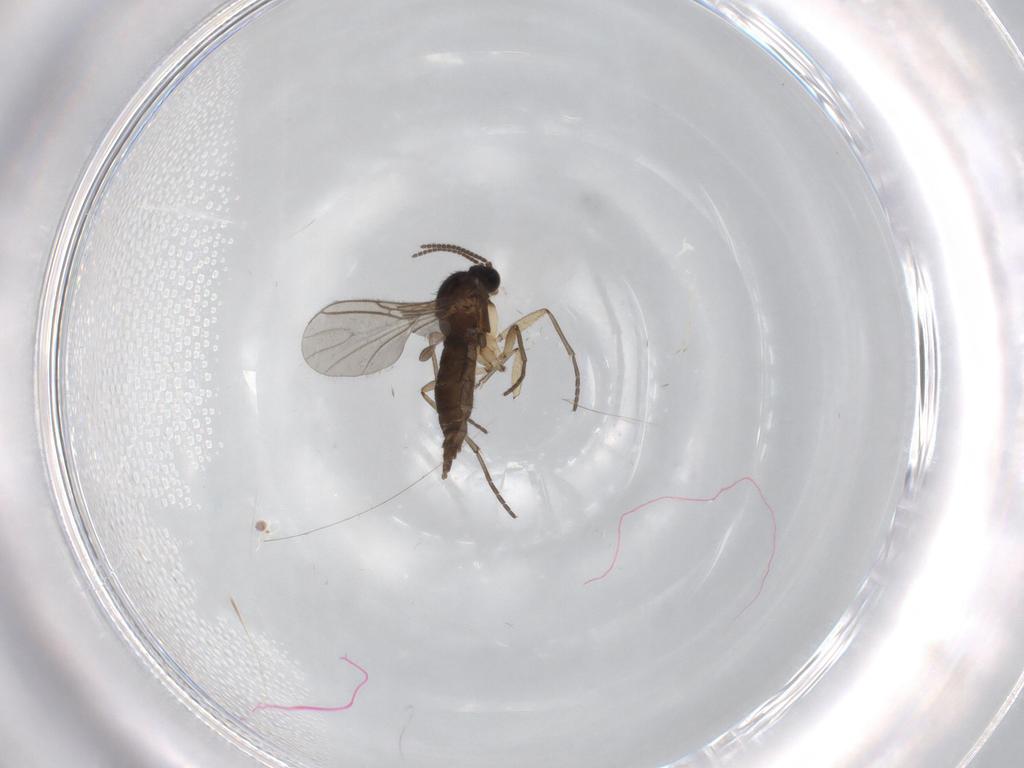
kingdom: Animalia
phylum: Arthropoda
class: Insecta
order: Diptera
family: Sciaridae
